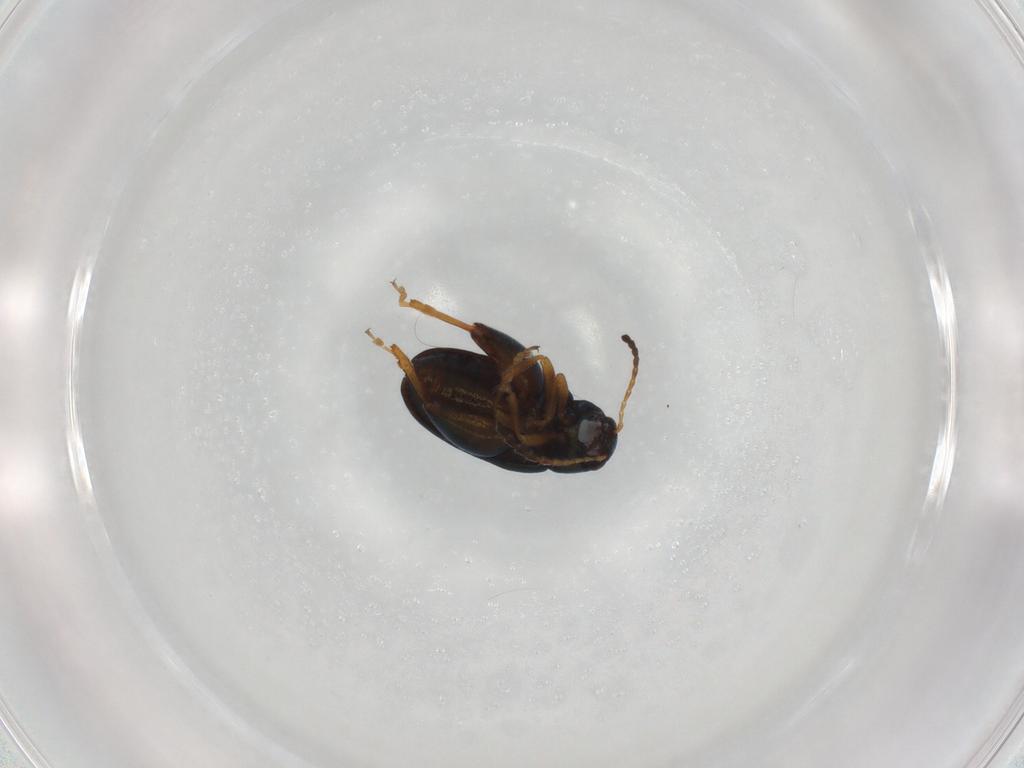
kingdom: Animalia
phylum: Arthropoda
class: Insecta
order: Coleoptera
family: Chrysomelidae
